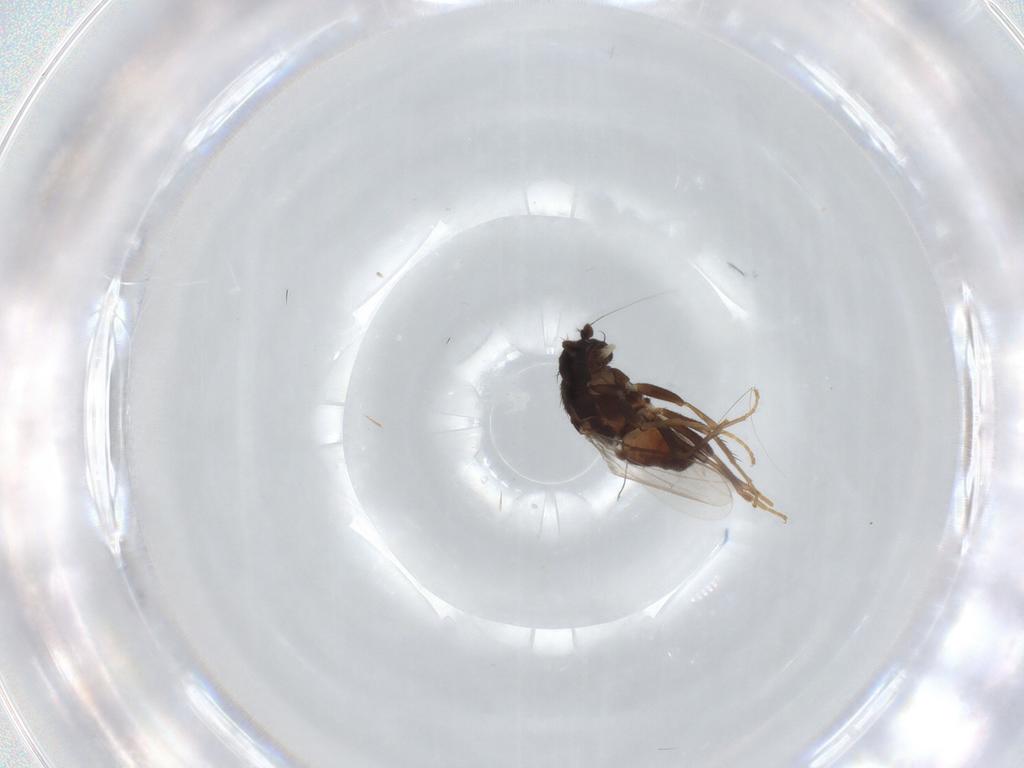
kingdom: Animalia
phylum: Arthropoda
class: Insecta
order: Diptera
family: Sphaeroceridae
